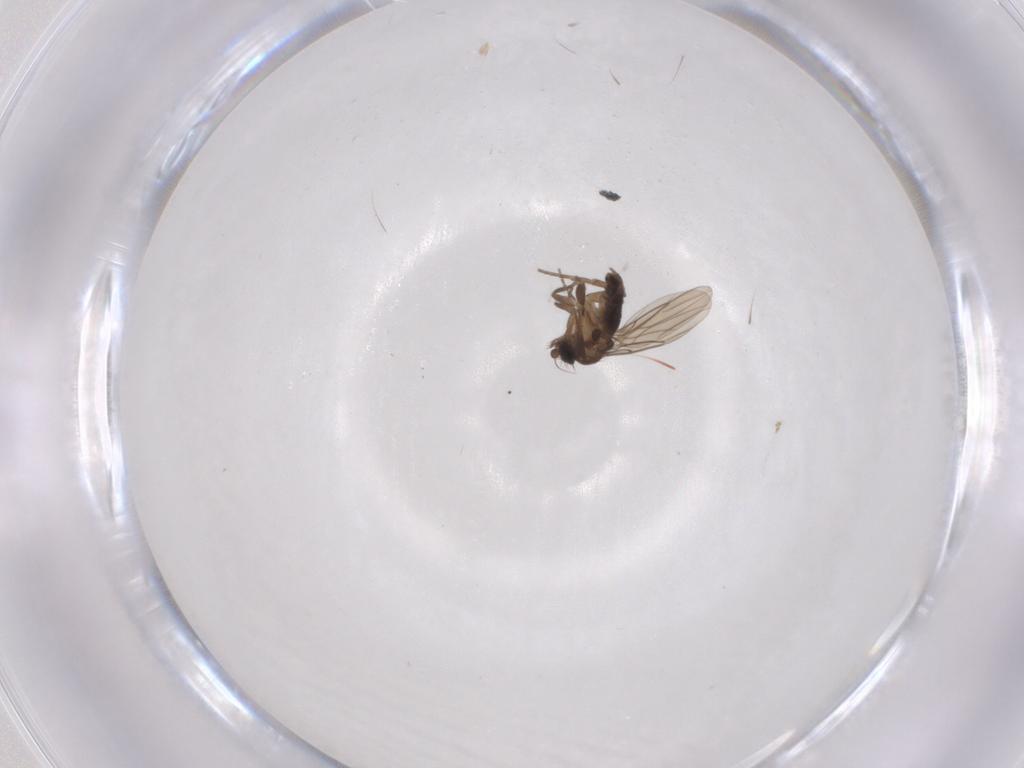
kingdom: Animalia
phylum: Arthropoda
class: Insecta
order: Diptera
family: Phoridae
